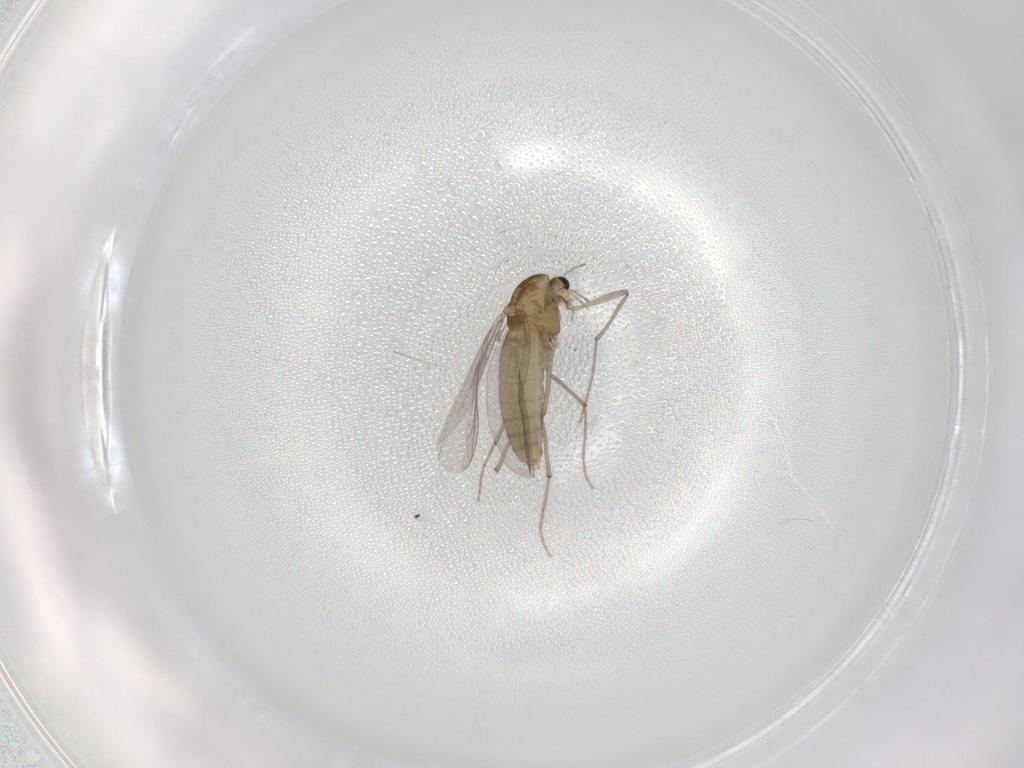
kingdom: Animalia
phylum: Arthropoda
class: Insecta
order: Diptera
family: Chironomidae
